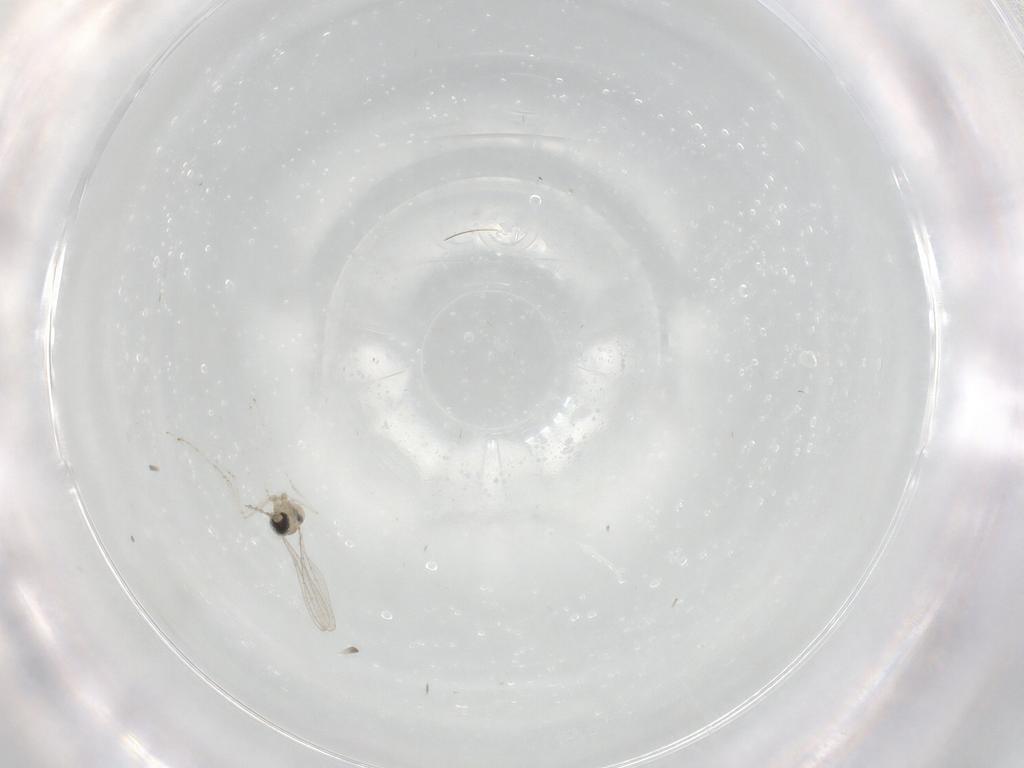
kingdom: Animalia
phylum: Arthropoda
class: Insecta
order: Diptera
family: Cecidomyiidae
